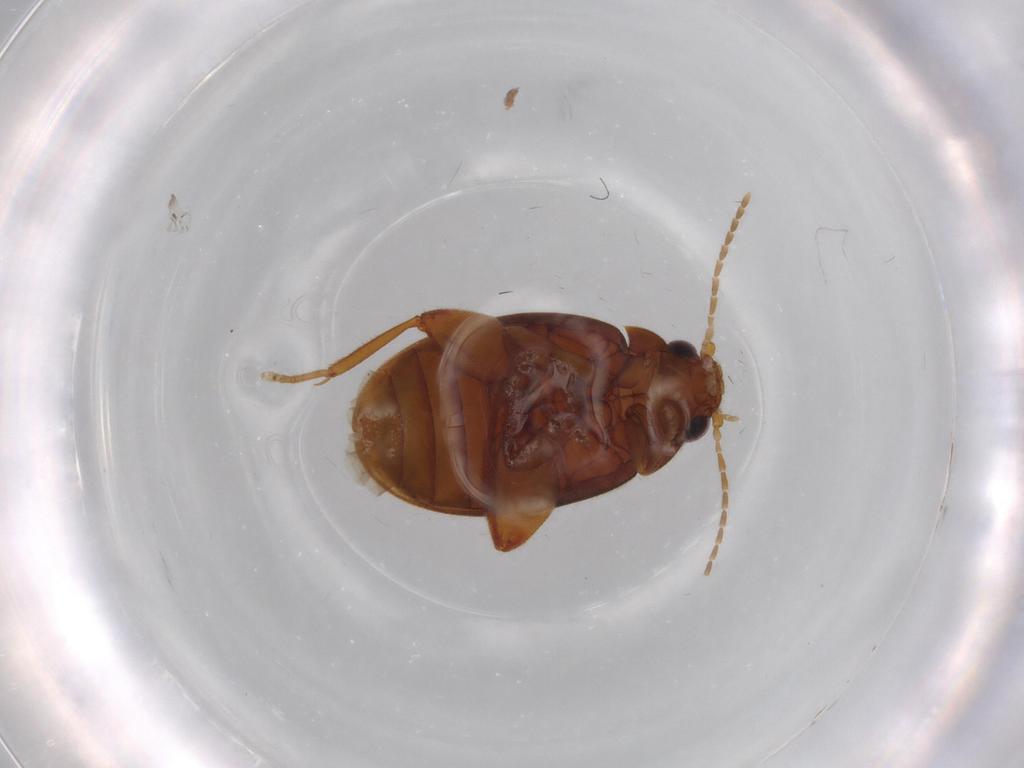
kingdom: Animalia
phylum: Arthropoda
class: Insecta
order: Coleoptera
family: Scirtidae
